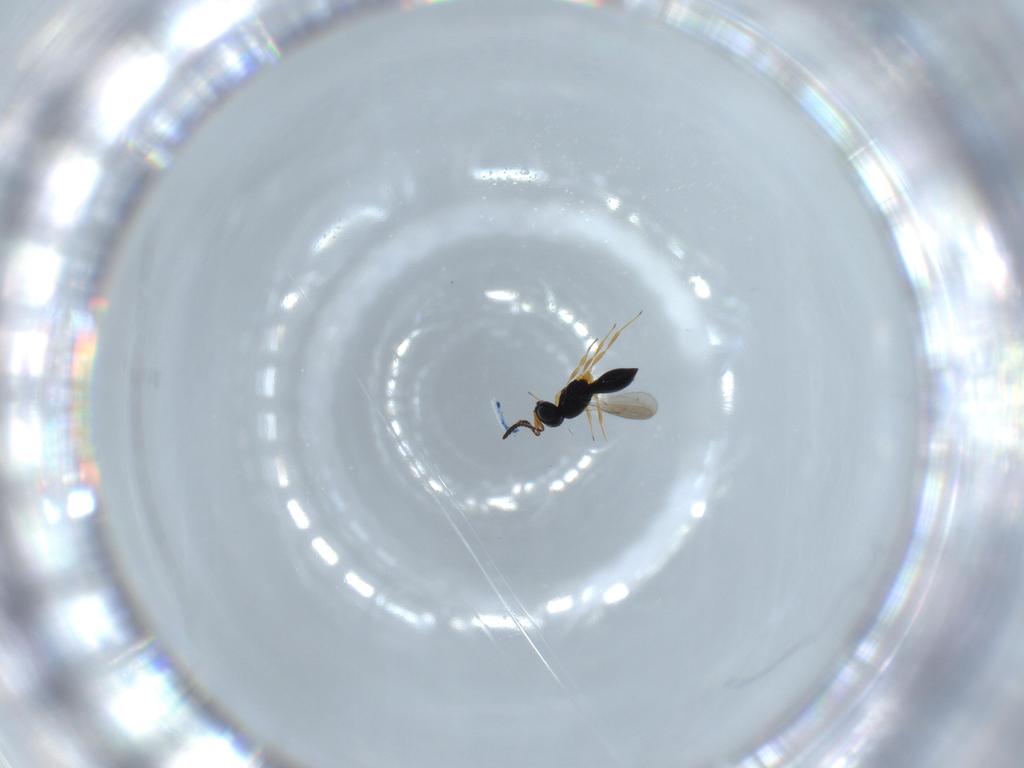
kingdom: Animalia
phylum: Arthropoda
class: Insecta
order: Hymenoptera
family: Scelionidae
